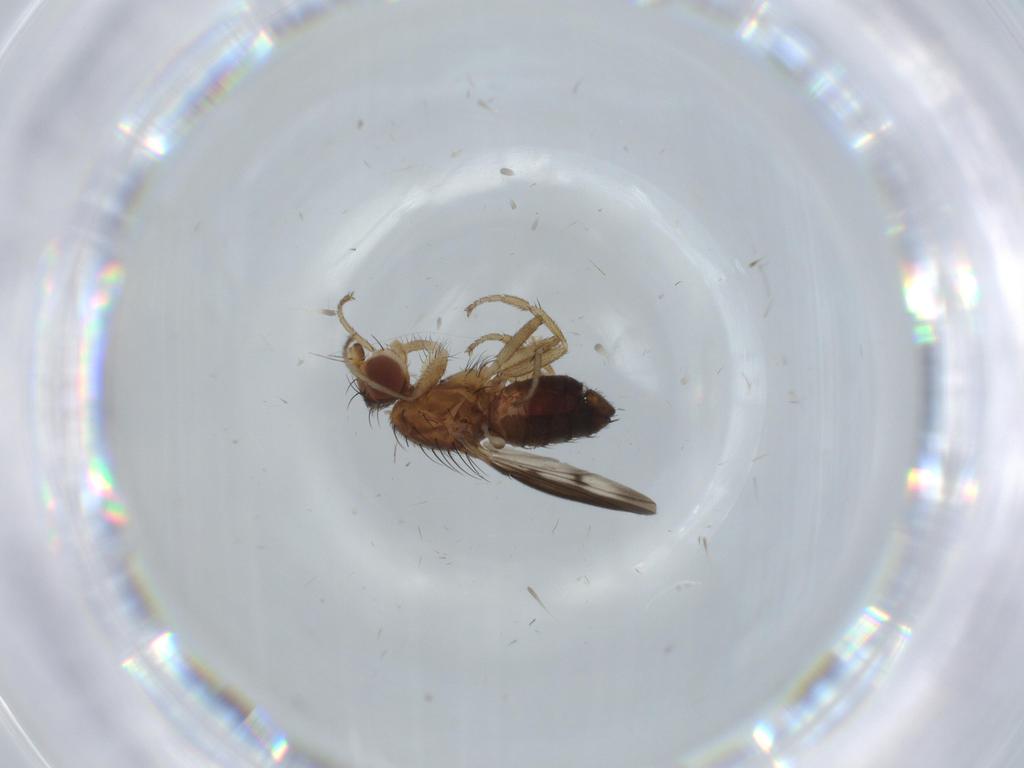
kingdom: Animalia
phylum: Arthropoda
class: Insecta
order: Diptera
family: Heleomyzidae
